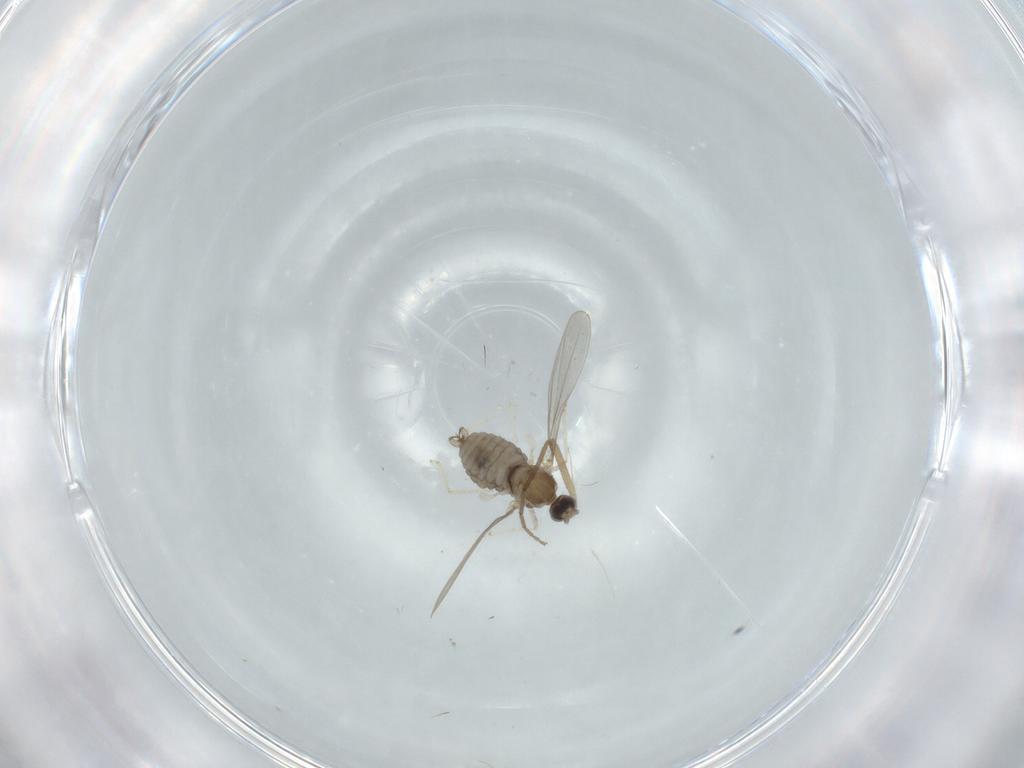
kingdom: Animalia
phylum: Arthropoda
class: Insecta
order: Diptera
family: Chironomidae
